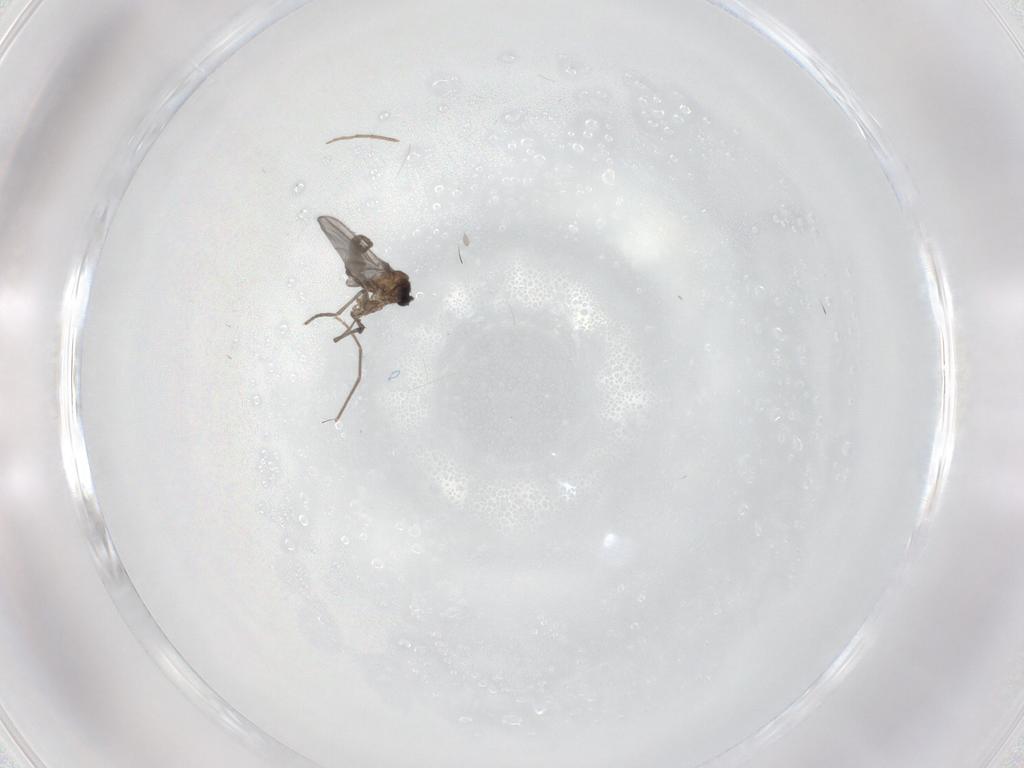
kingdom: Animalia
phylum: Arthropoda
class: Insecta
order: Diptera
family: Sciaridae
